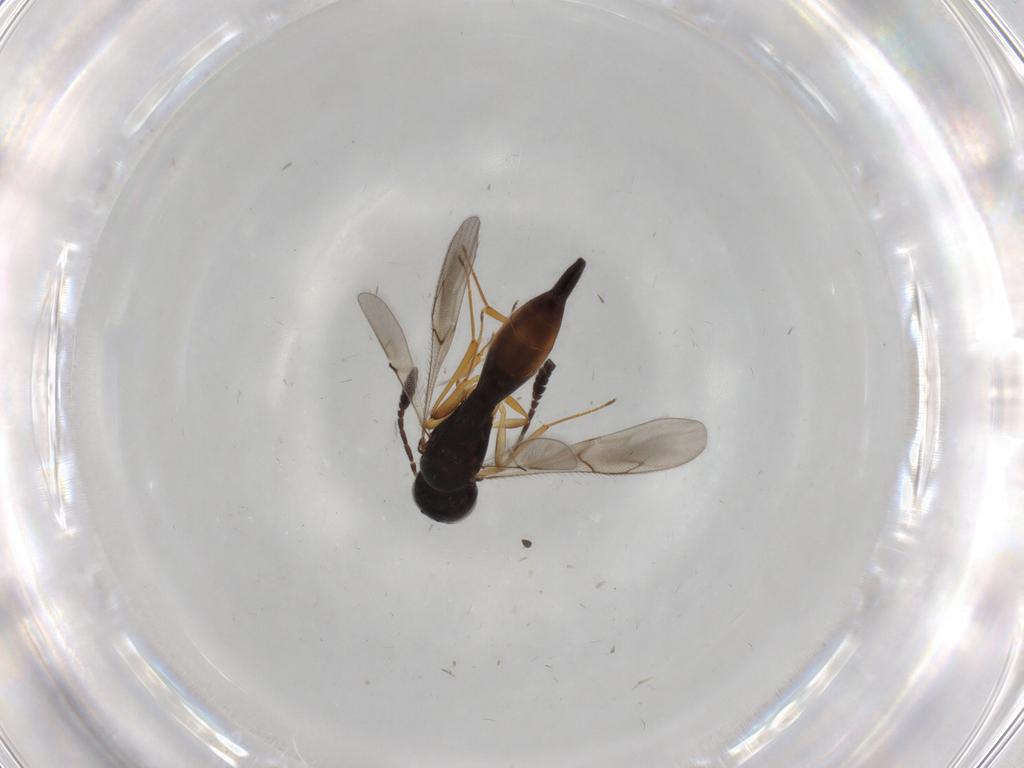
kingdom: Animalia
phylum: Arthropoda
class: Insecta
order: Hymenoptera
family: Scelionidae
